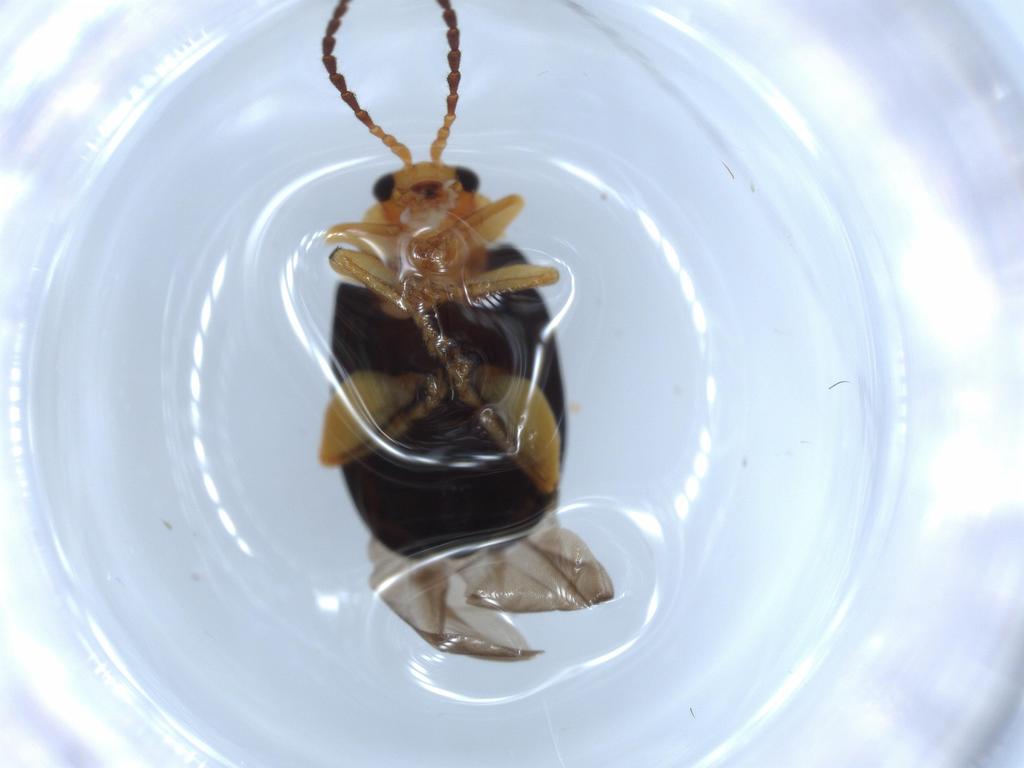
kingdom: Animalia
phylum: Arthropoda
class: Insecta
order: Coleoptera
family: Chrysomelidae
